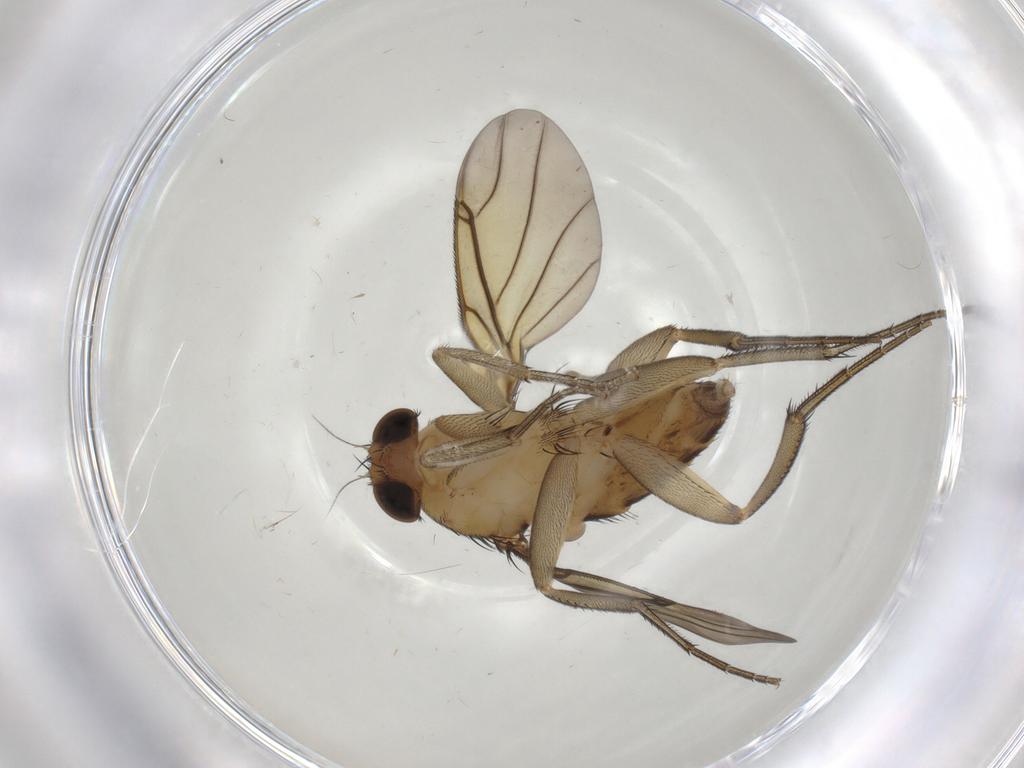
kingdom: Animalia
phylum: Arthropoda
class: Insecta
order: Diptera
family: Phoridae
